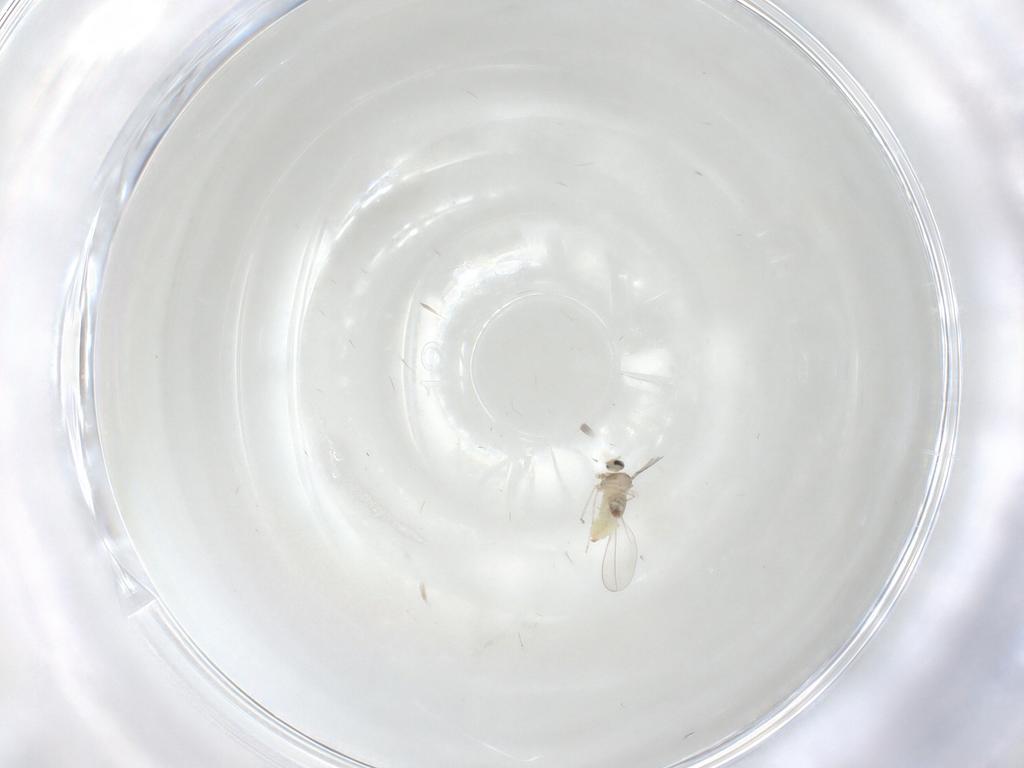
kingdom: Animalia
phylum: Arthropoda
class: Insecta
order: Diptera
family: Cecidomyiidae
